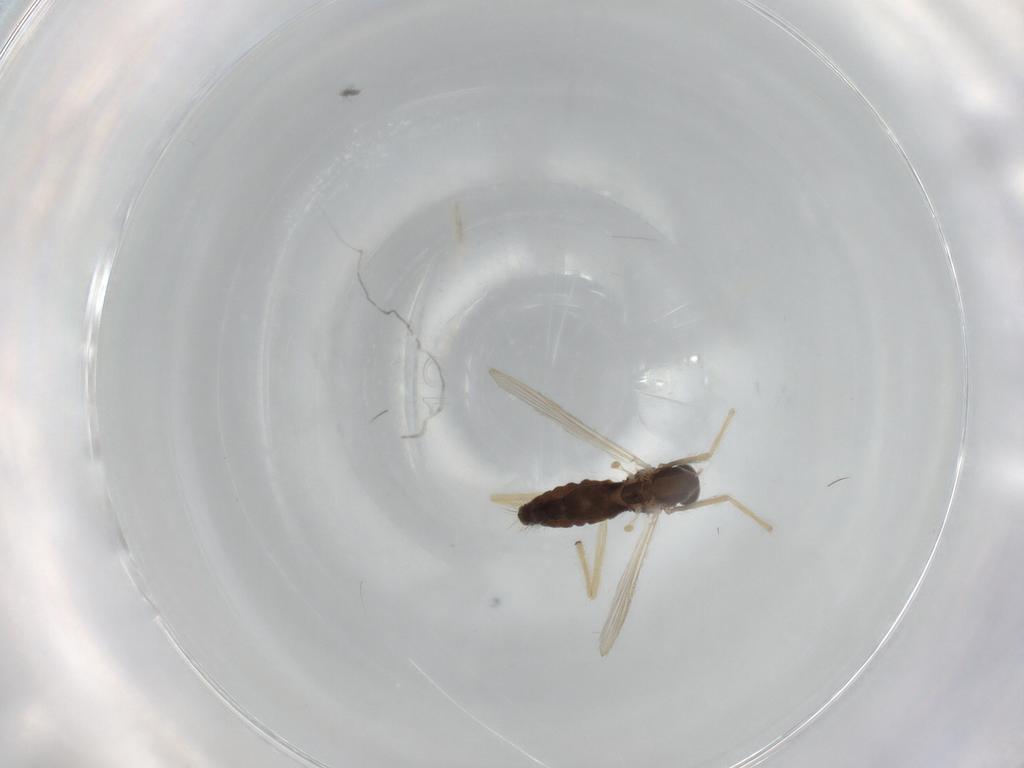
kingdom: Animalia
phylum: Arthropoda
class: Insecta
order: Diptera
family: Chironomidae
